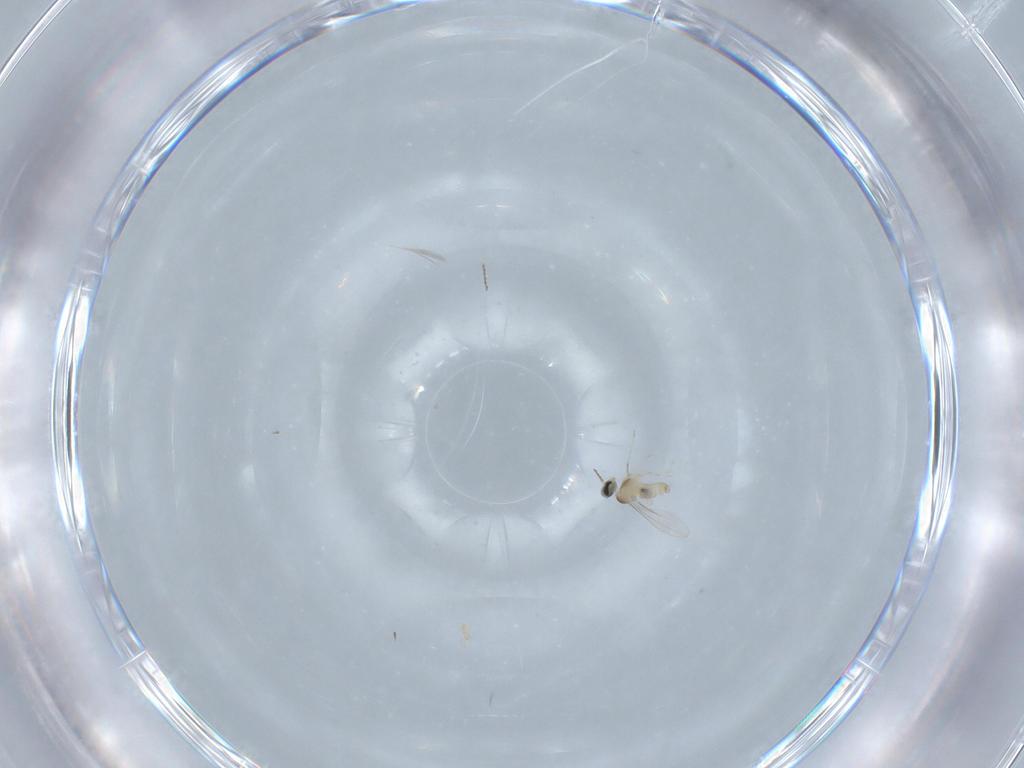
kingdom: Animalia
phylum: Arthropoda
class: Insecta
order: Diptera
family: Cecidomyiidae
